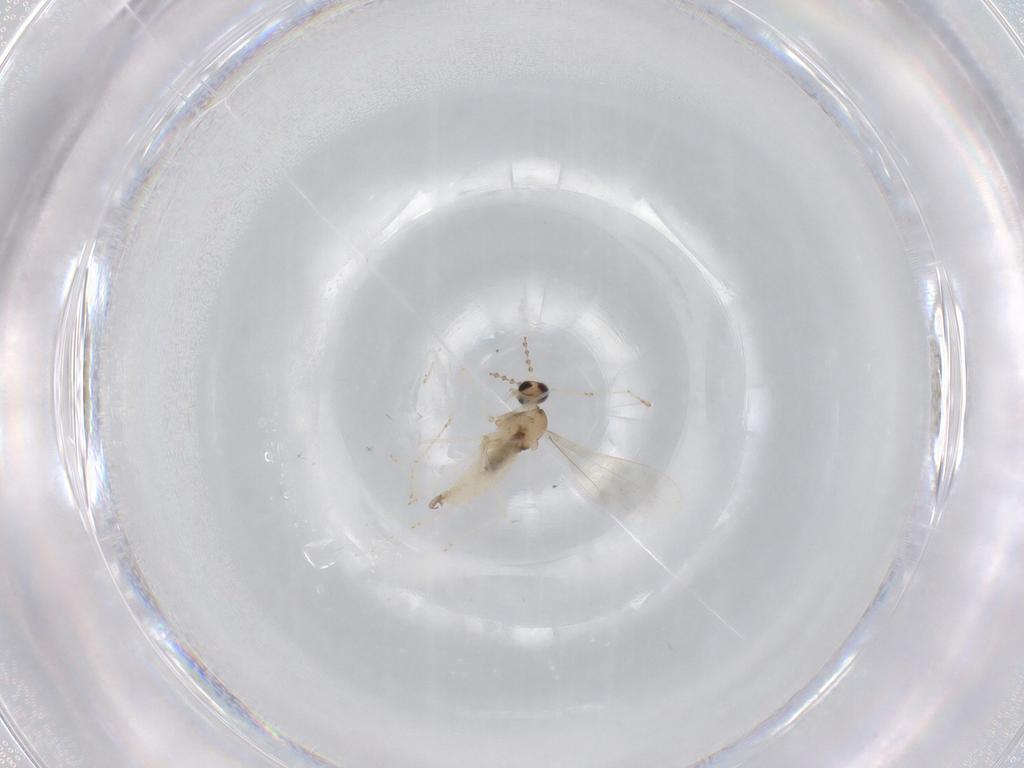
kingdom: Animalia
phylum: Arthropoda
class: Insecta
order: Diptera
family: Cecidomyiidae
